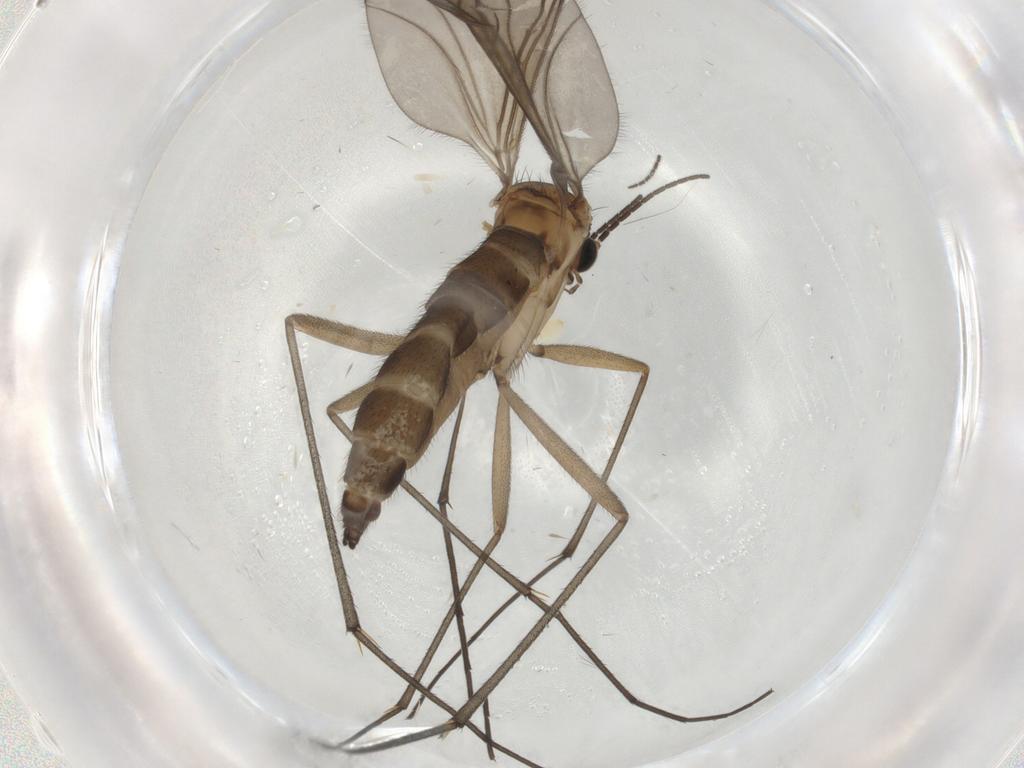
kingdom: Animalia
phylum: Arthropoda
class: Insecta
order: Diptera
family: Sciaridae
